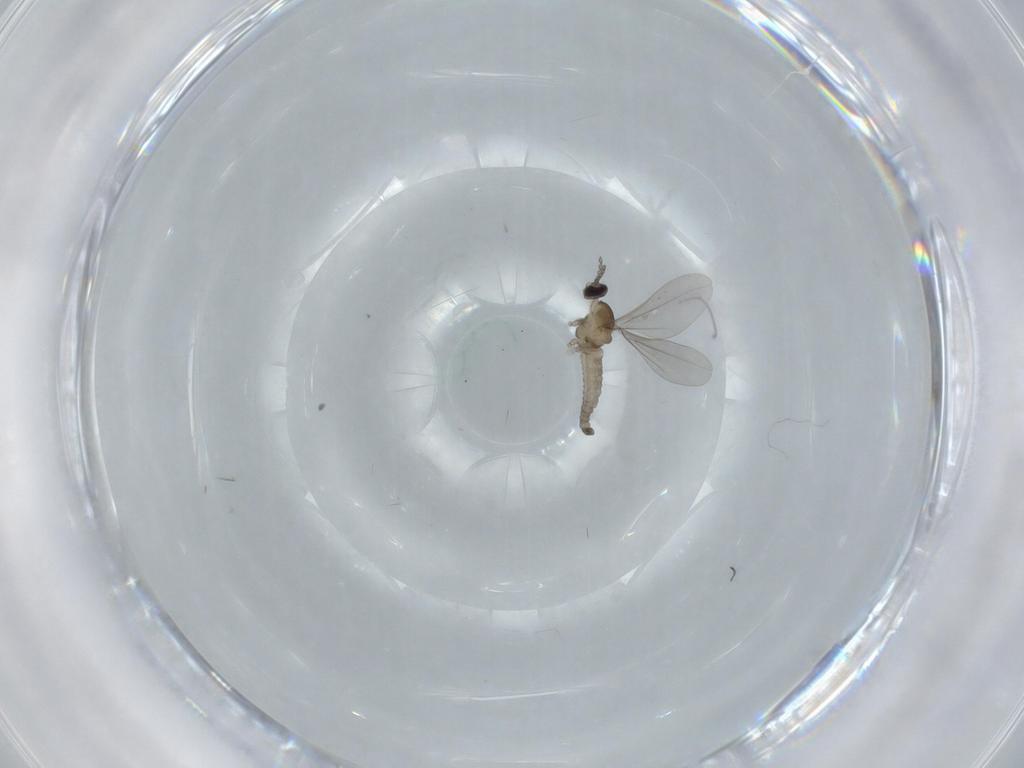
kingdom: Animalia
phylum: Arthropoda
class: Insecta
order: Diptera
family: Cecidomyiidae
